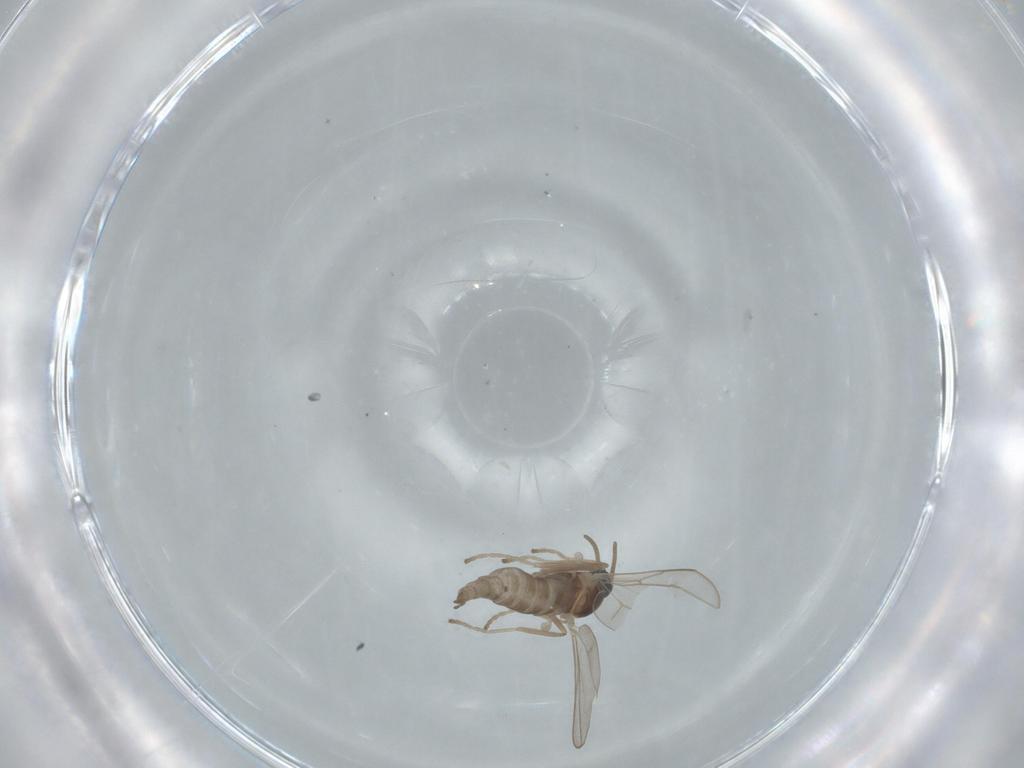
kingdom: Animalia
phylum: Arthropoda
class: Insecta
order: Diptera
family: Cecidomyiidae
